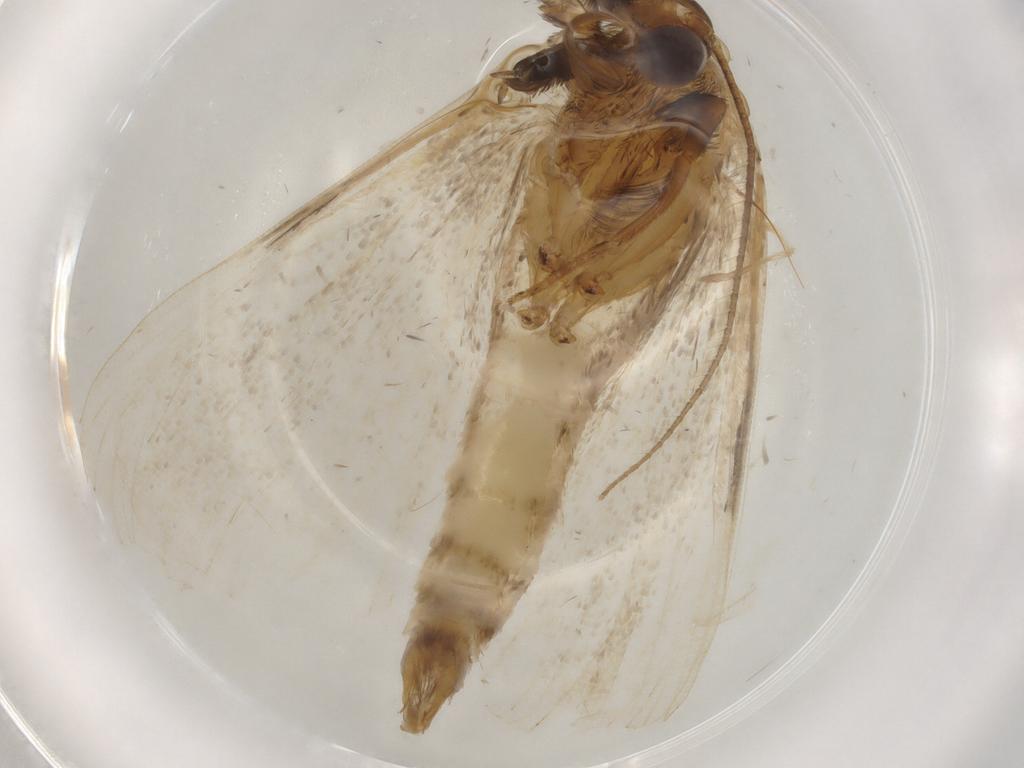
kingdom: Animalia
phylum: Arthropoda
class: Insecta
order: Lepidoptera
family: Erebidae
